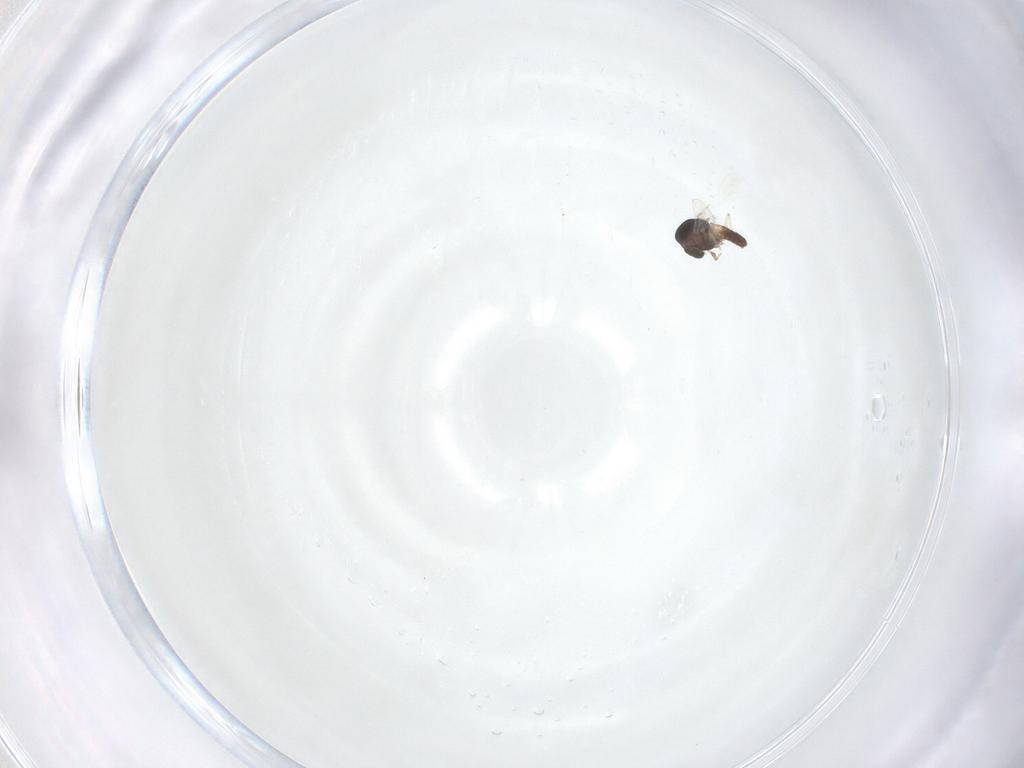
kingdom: Animalia
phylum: Arthropoda
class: Insecta
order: Diptera
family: Chironomidae
